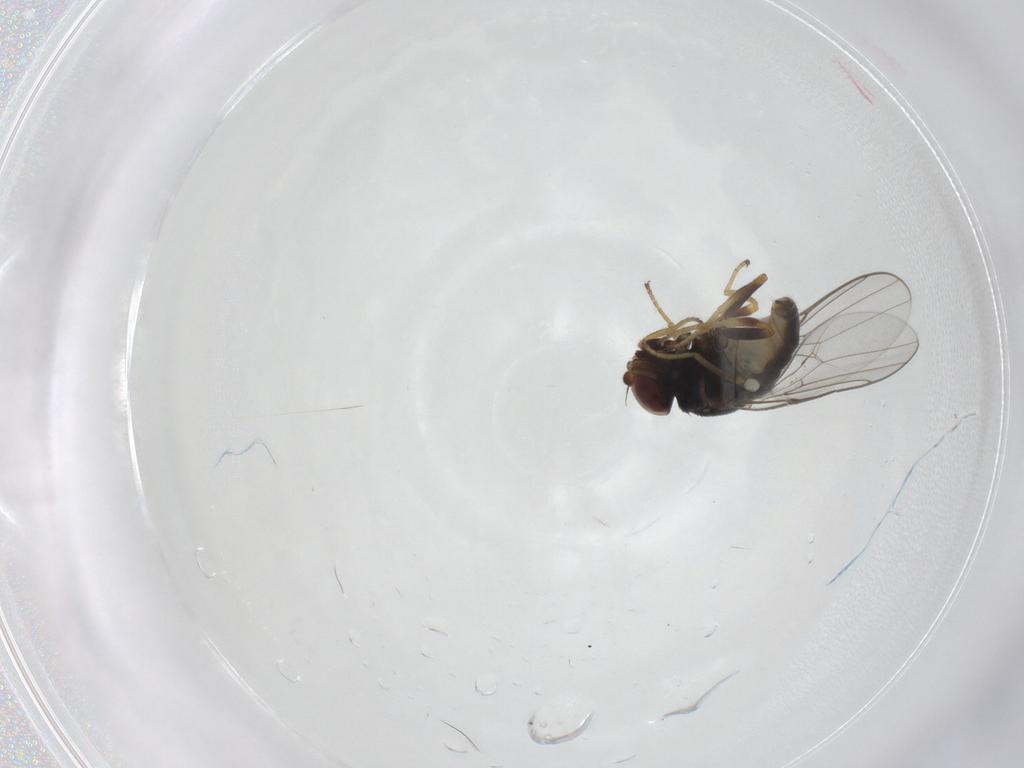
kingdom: Animalia
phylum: Arthropoda
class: Insecta
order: Diptera
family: Chloropidae
